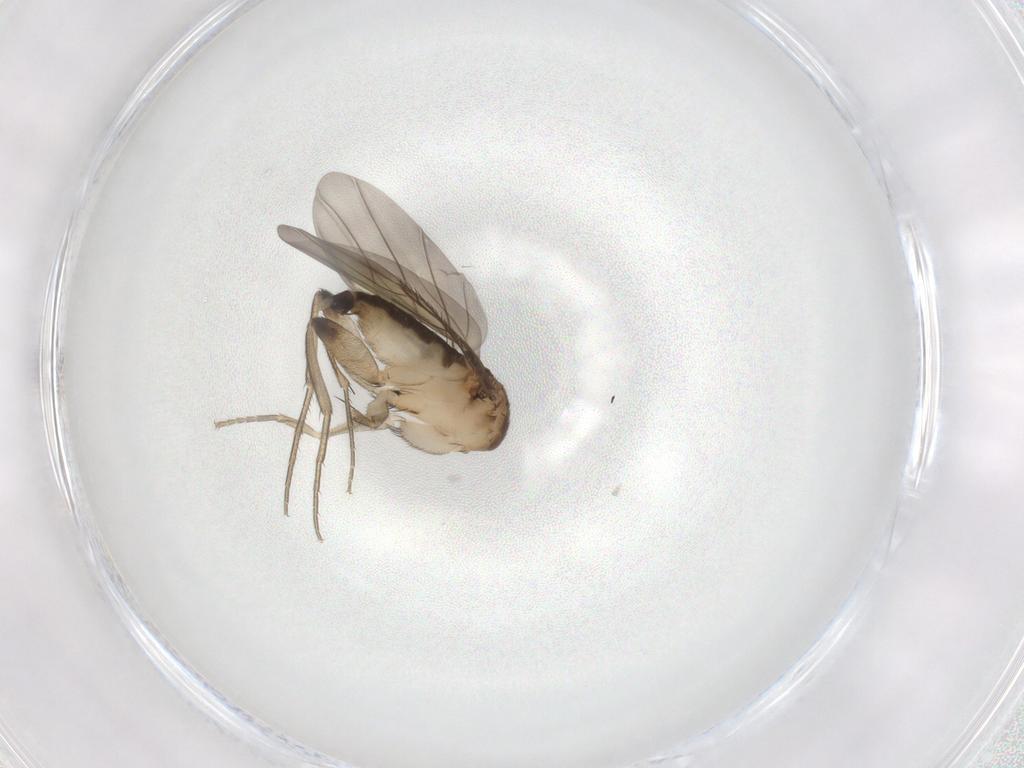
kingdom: Animalia
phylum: Arthropoda
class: Insecta
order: Diptera
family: Phoridae
